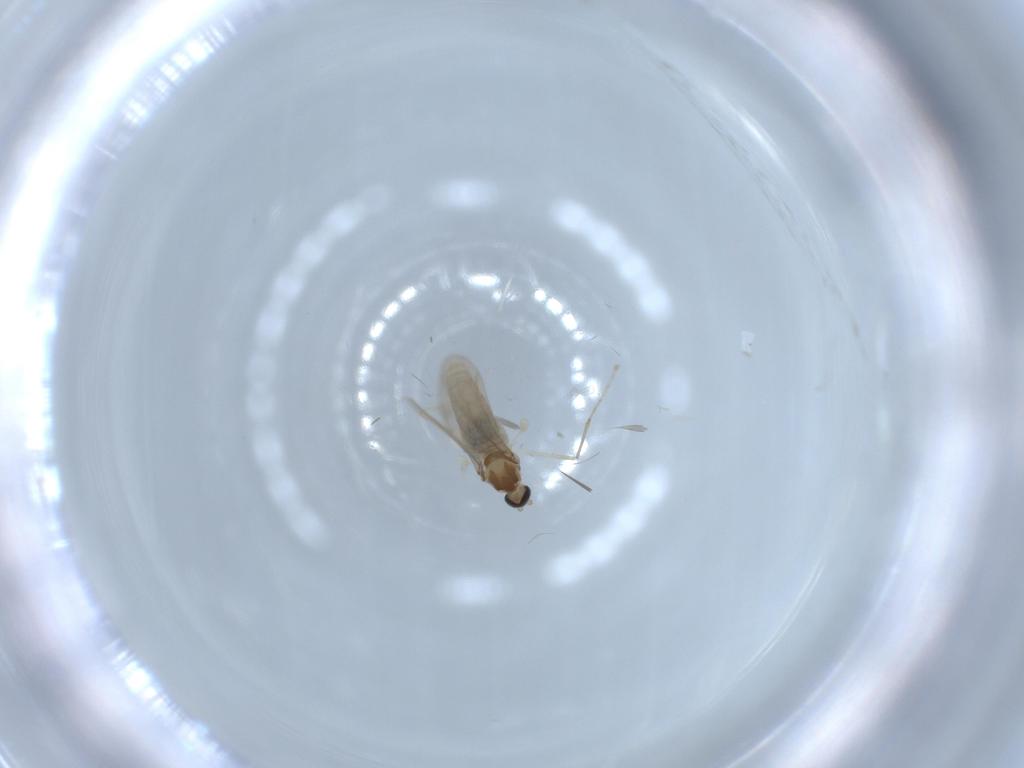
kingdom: Animalia
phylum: Arthropoda
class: Insecta
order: Diptera
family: Cecidomyiidae
